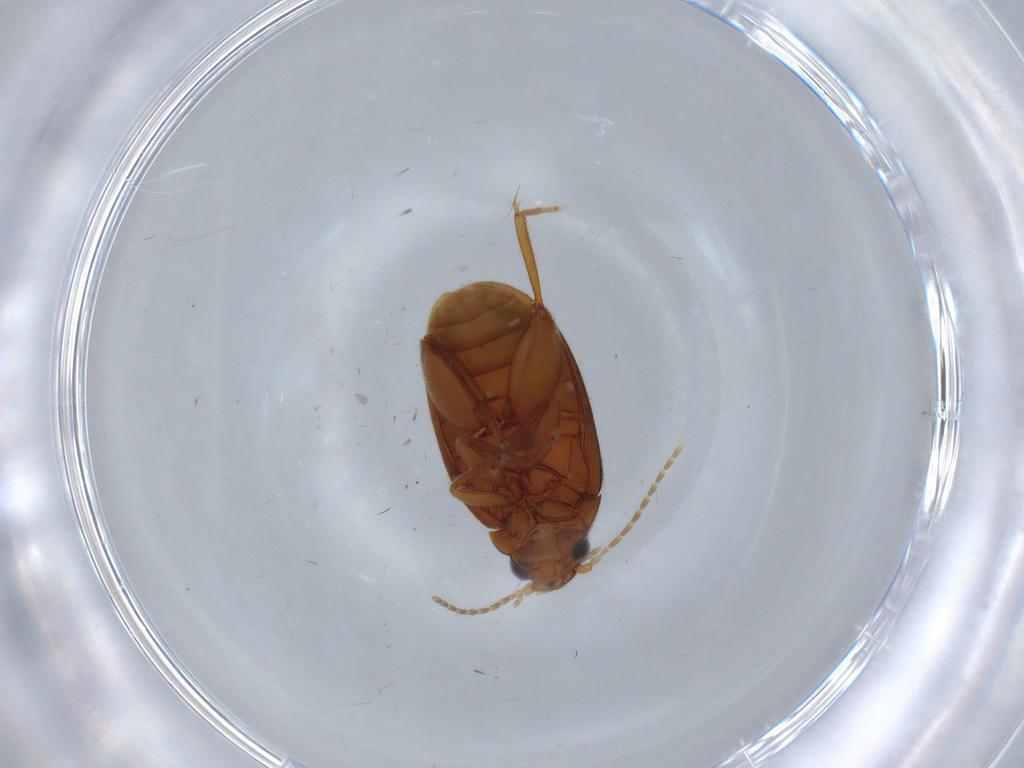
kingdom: Animalia
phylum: Arthropoda
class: Insecta
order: Coleoptera
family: Scirtidae
